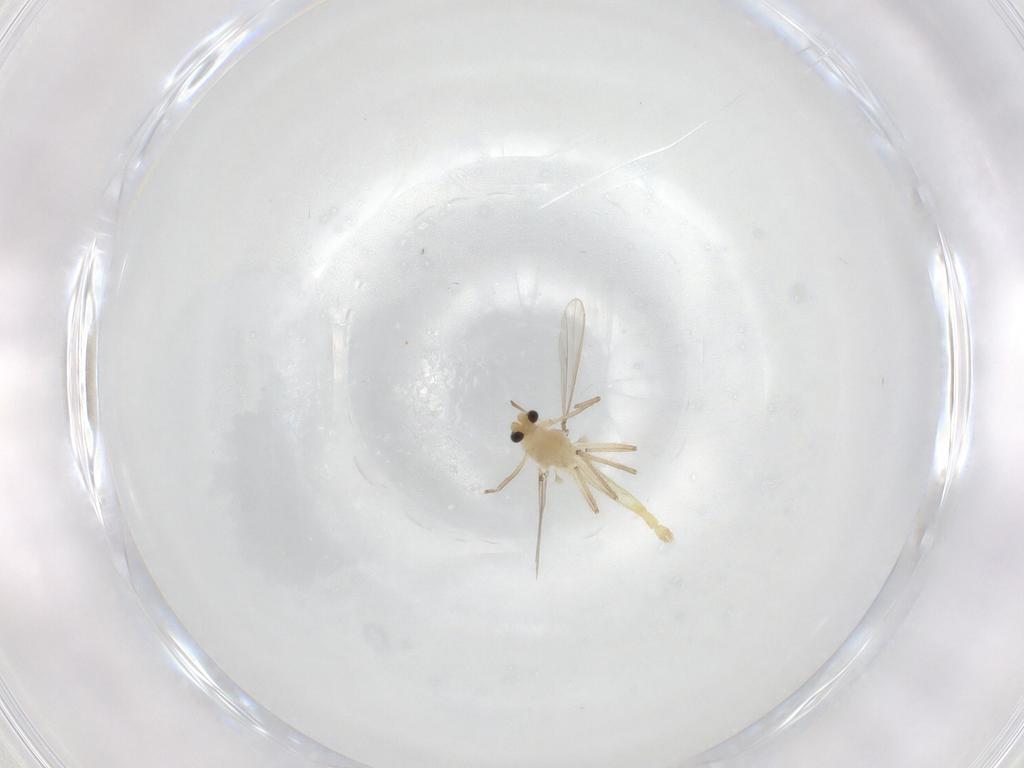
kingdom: Animalia
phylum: Arthropoda
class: Insecta
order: Diptera
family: Chironomidae
